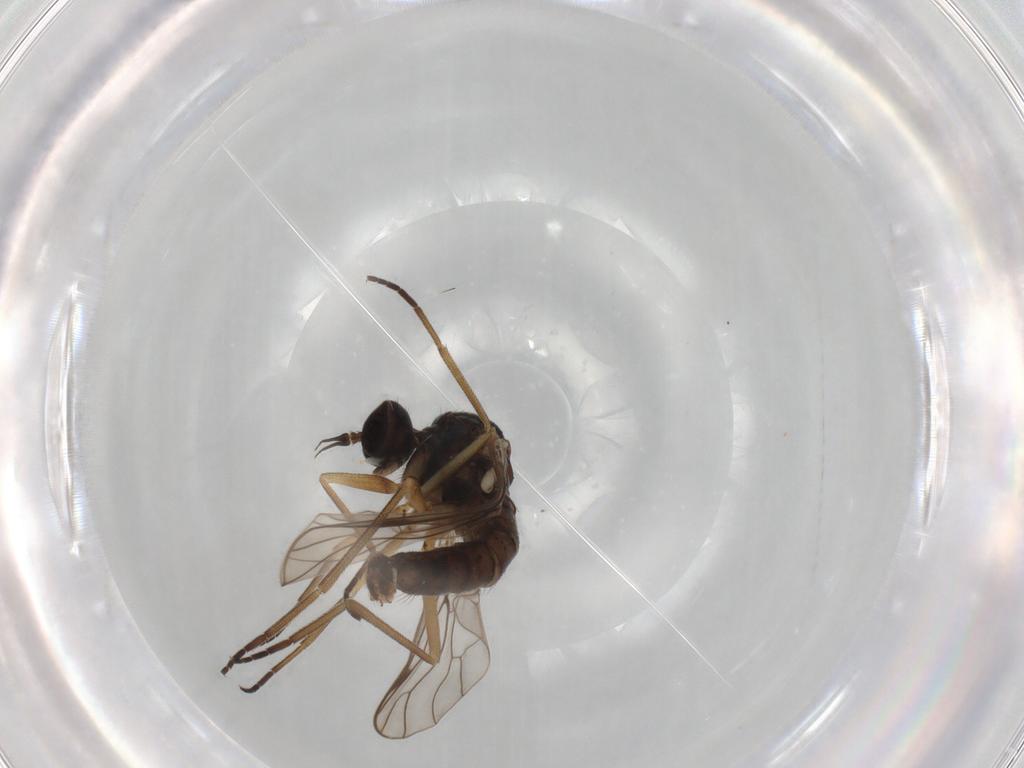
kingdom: Animalia
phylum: Arthropoda
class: Insecta
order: Diptera
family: Empididae
